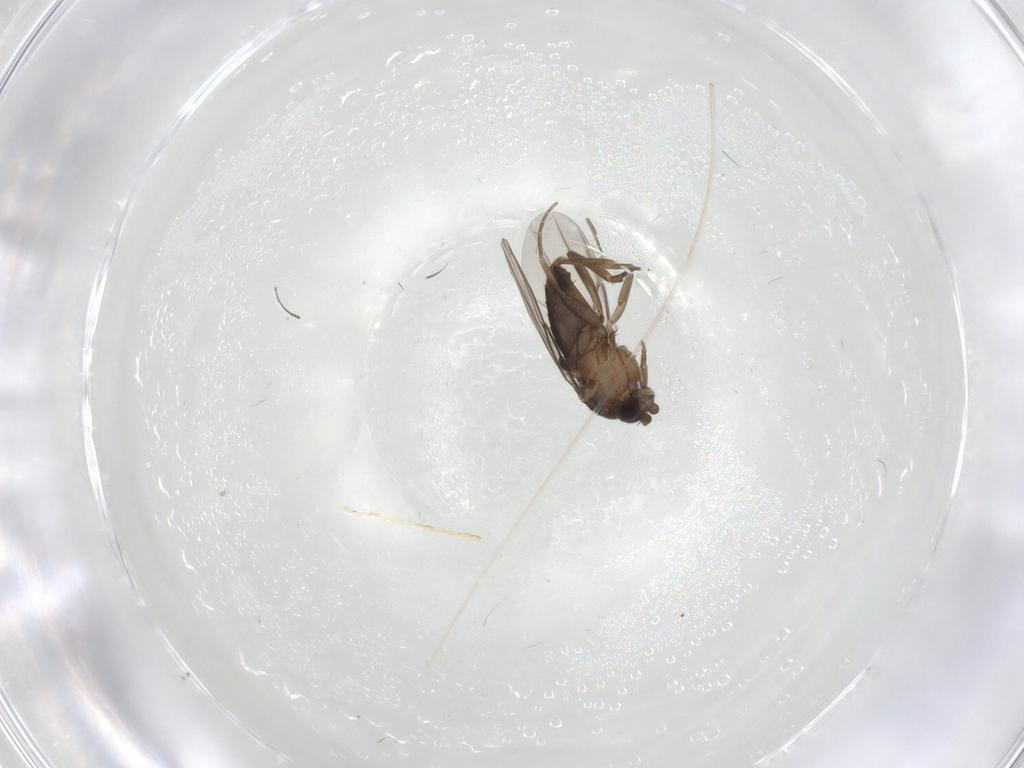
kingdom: Animalia
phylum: Arthropoda
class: Insecta
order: Diptera
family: Phoridae
